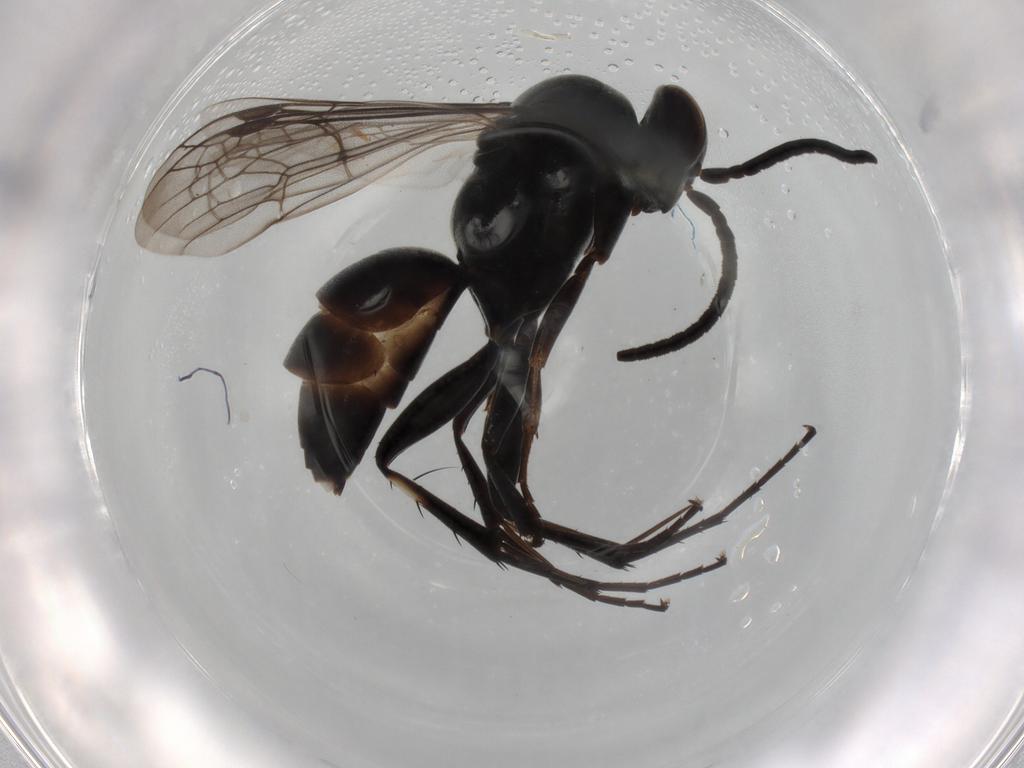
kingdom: Animalia
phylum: Arthropoda
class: Insecta
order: Hymenoptera
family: Pompilidae
